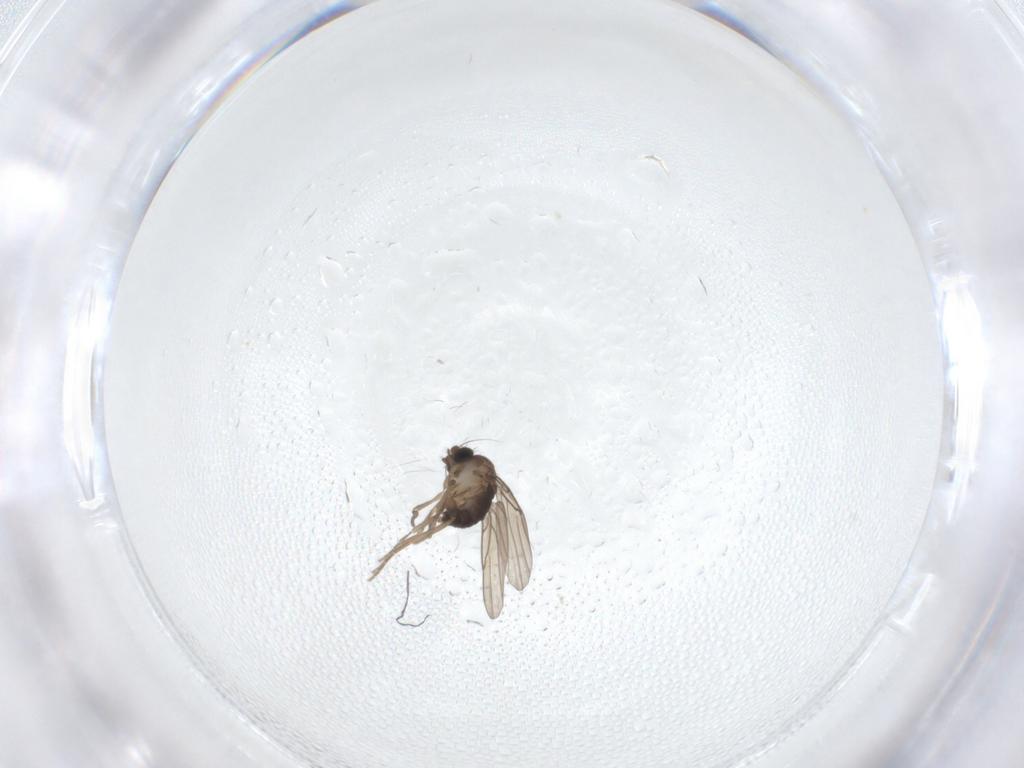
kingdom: Animalia
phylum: Arthropoda
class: Insecta
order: Diptera
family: Phoridae
